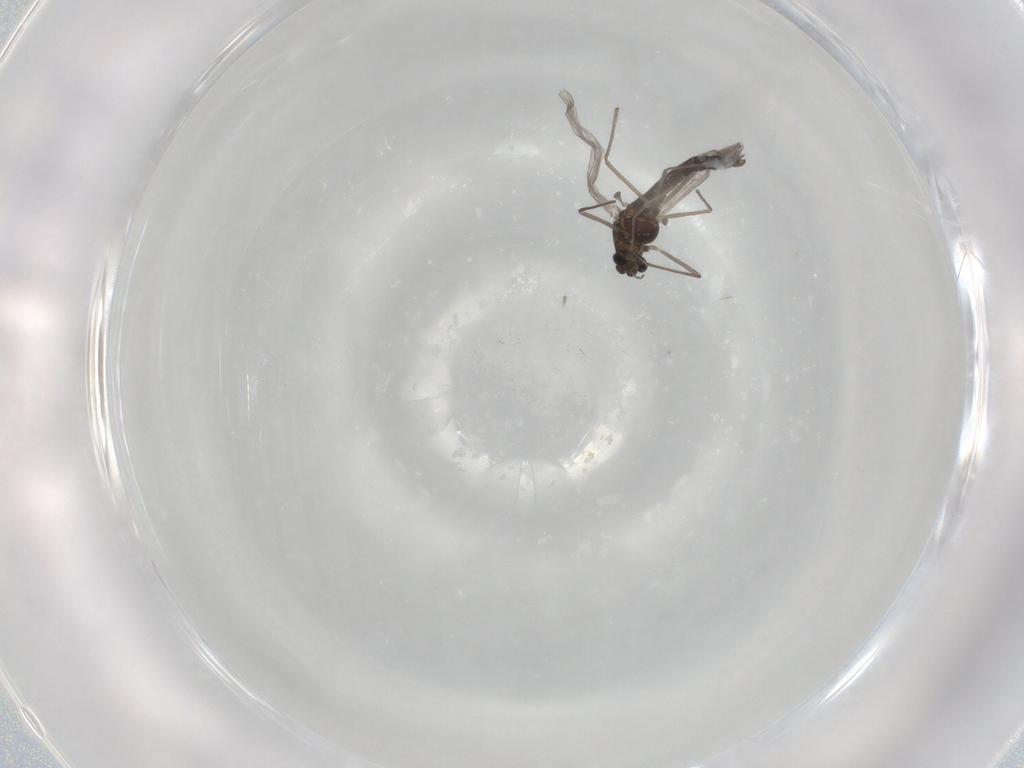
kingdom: Animalia
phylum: Arthropoda
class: Insecta
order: Diptera
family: Chironomidae
